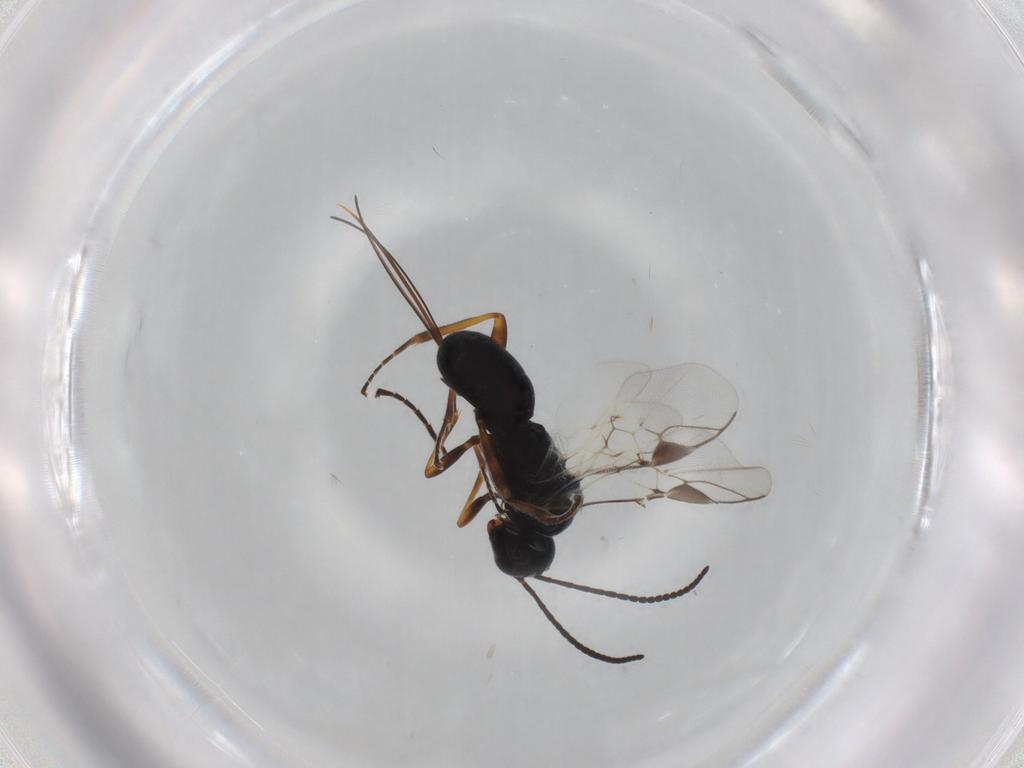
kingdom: Animalia
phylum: Arthropoda
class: Insecta
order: Hymenoptera
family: Braconidae
